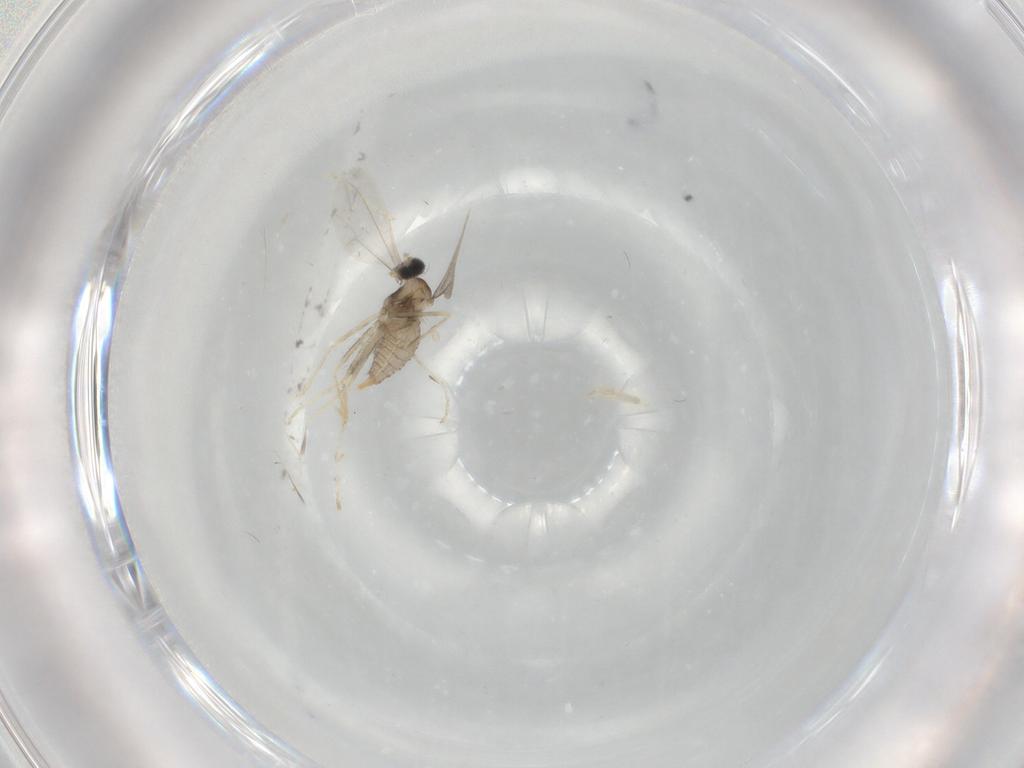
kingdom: Animalia
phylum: Arthropoda
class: Insecta
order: Diptera
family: Cecidomyiidae
